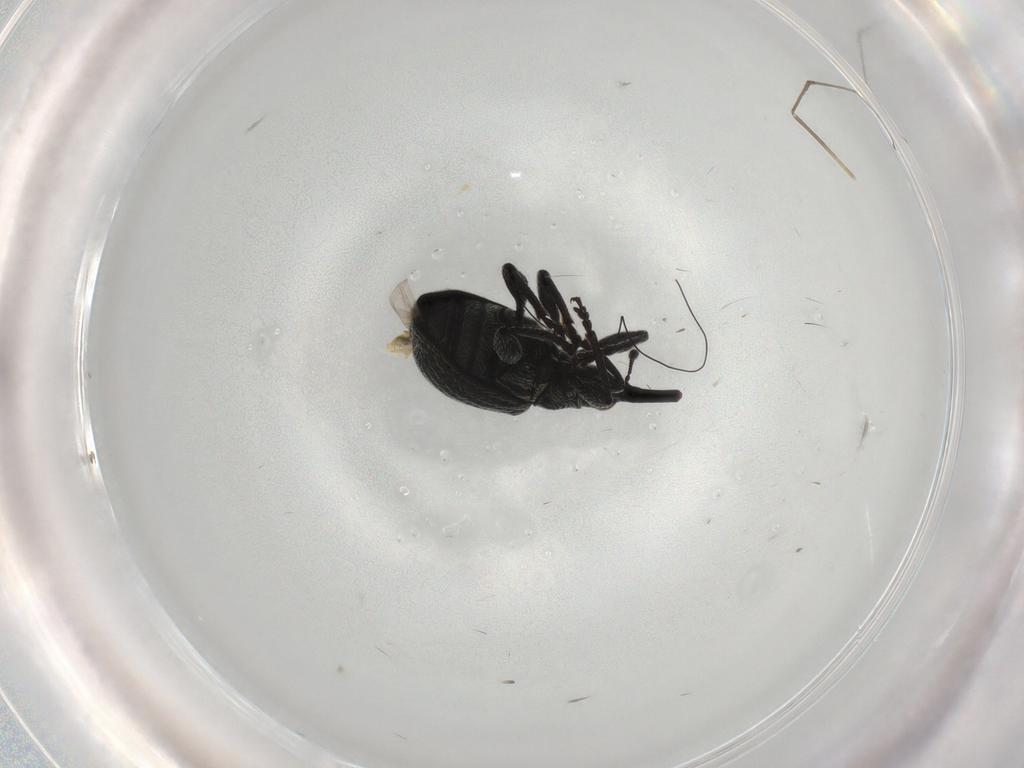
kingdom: Animalia
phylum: Arthropoda
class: Insecta
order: Coleoptera
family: Brentidae
